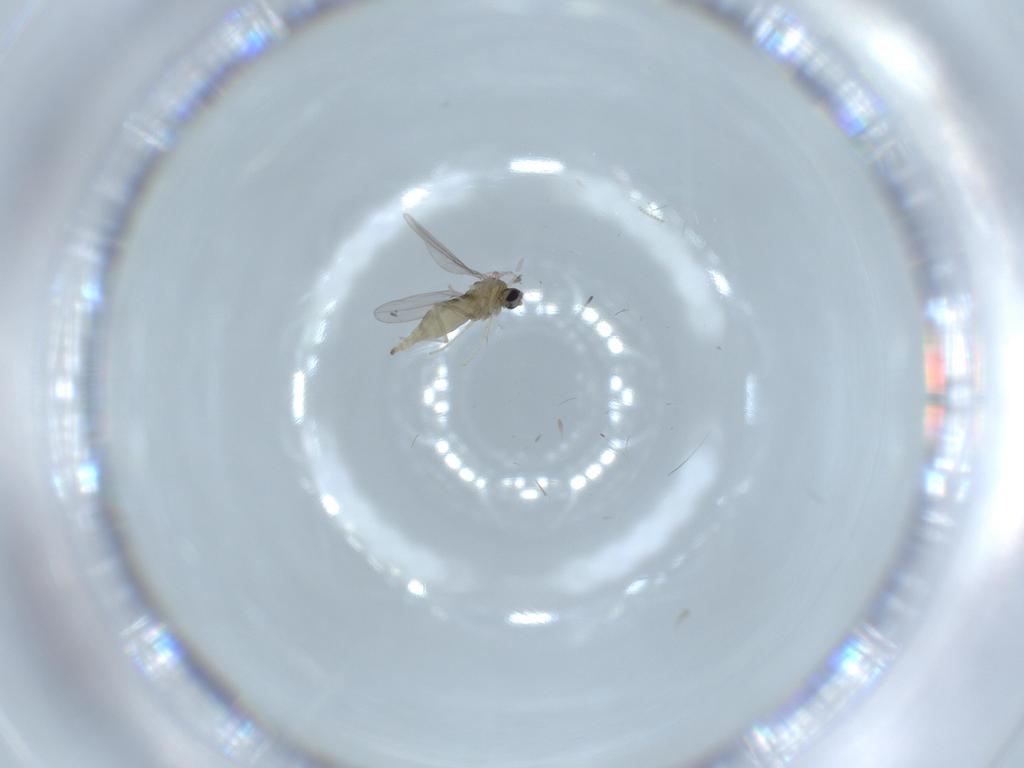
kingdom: Animalia
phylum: Arthropoda
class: Insecta
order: Diptera
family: Cecidomyiidae
